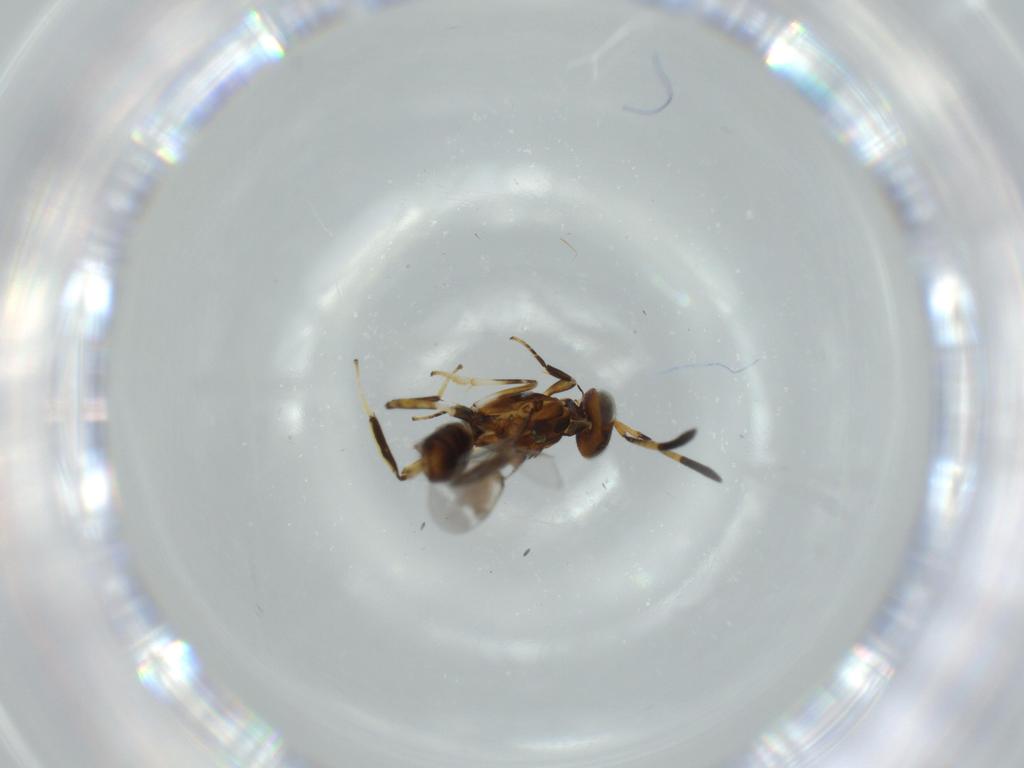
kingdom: Animalia
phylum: Arthropoda
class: Insecta
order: Hymenoptera
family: Eupelmidae
